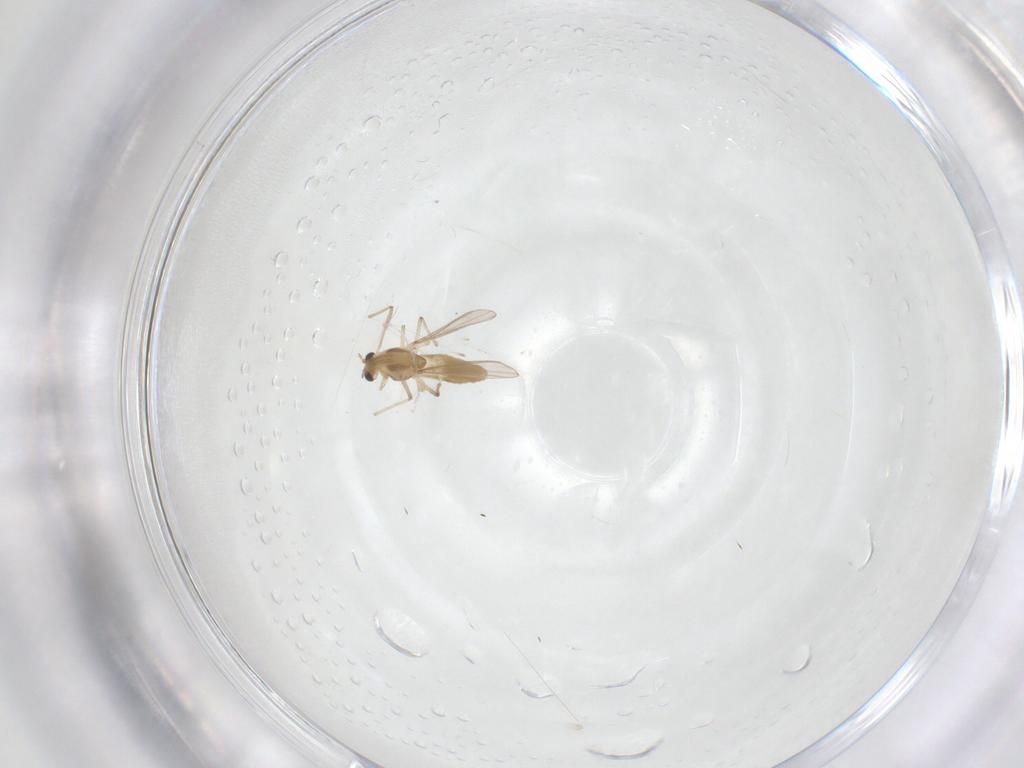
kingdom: Animalia
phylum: Arthropoda
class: Insecta
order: Diptera
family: Chironomidae
